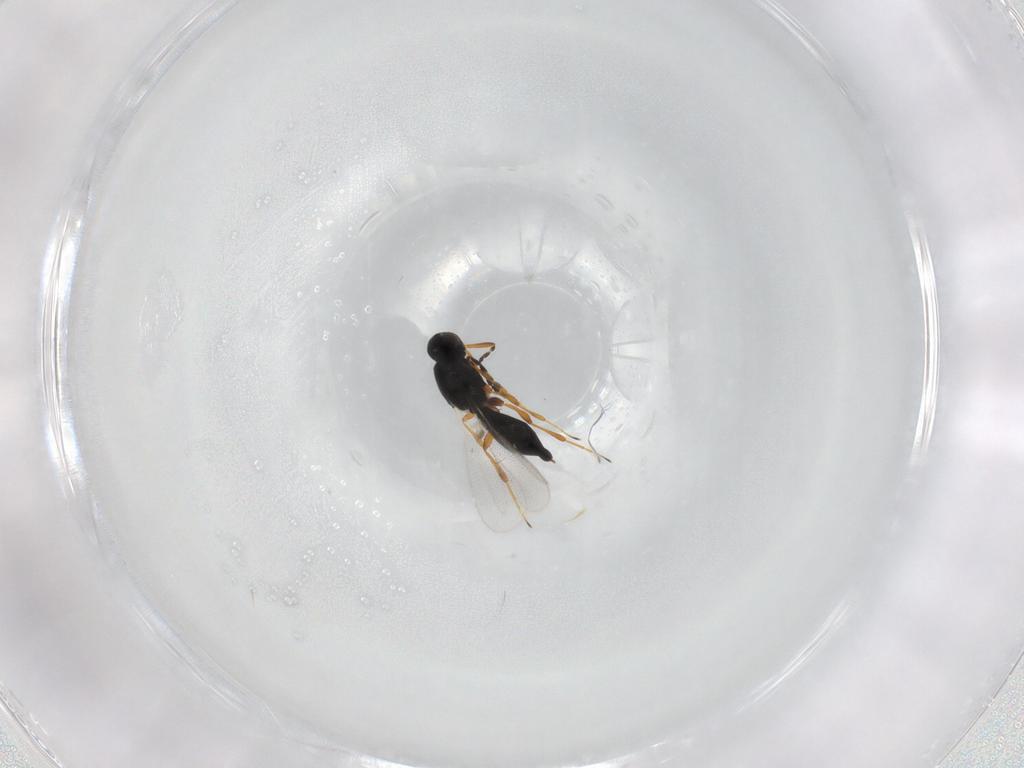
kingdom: Animalia
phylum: Arthropoda
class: Insecta
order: Hymenoptera
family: Platygastridae
